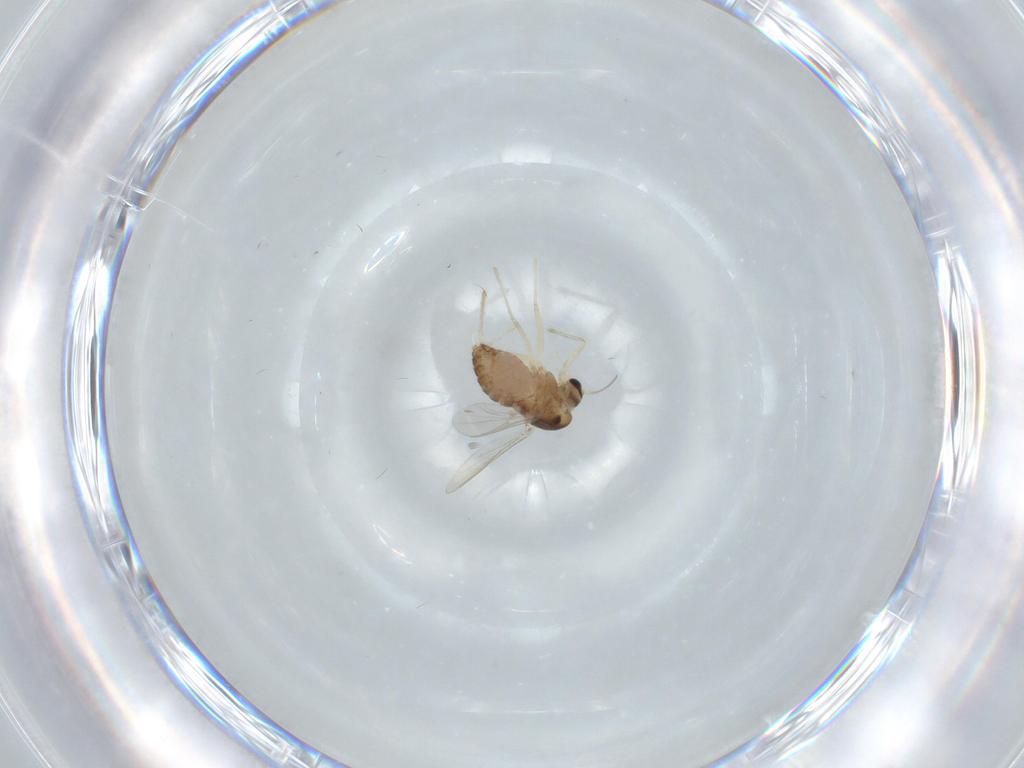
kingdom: Animalia
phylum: Arthropoda
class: Insecta
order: Diptera
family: Chironomidae
